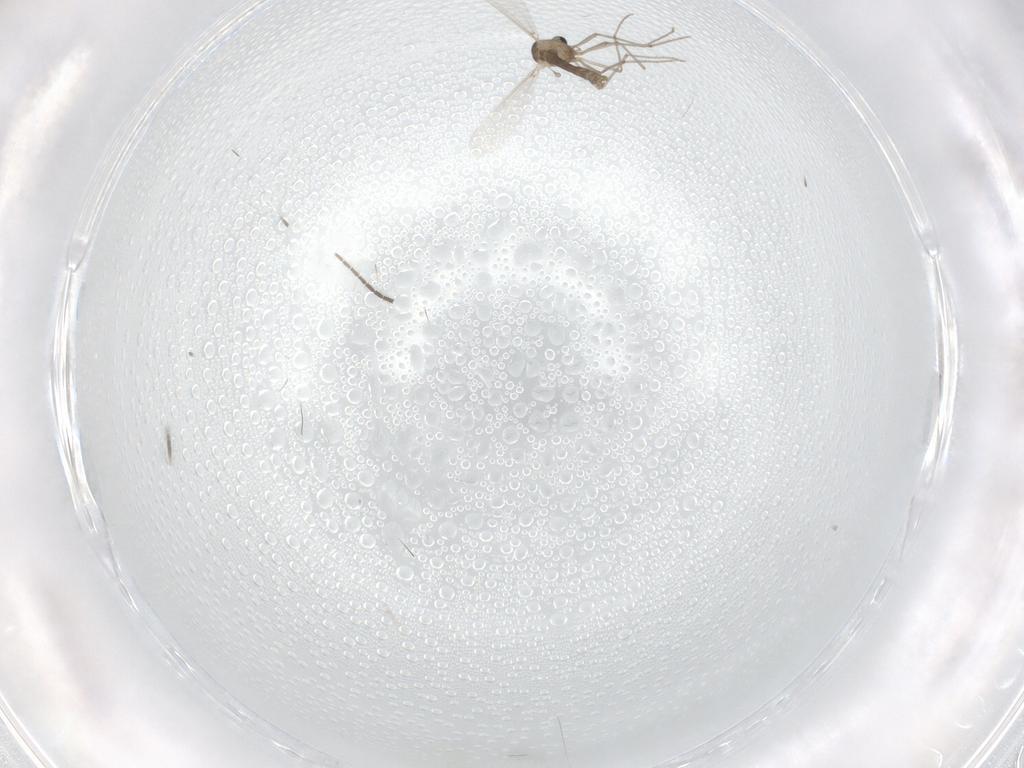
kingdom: Animalia
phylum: Arthropoda
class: Insecta
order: Diptera
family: Chironomidae
